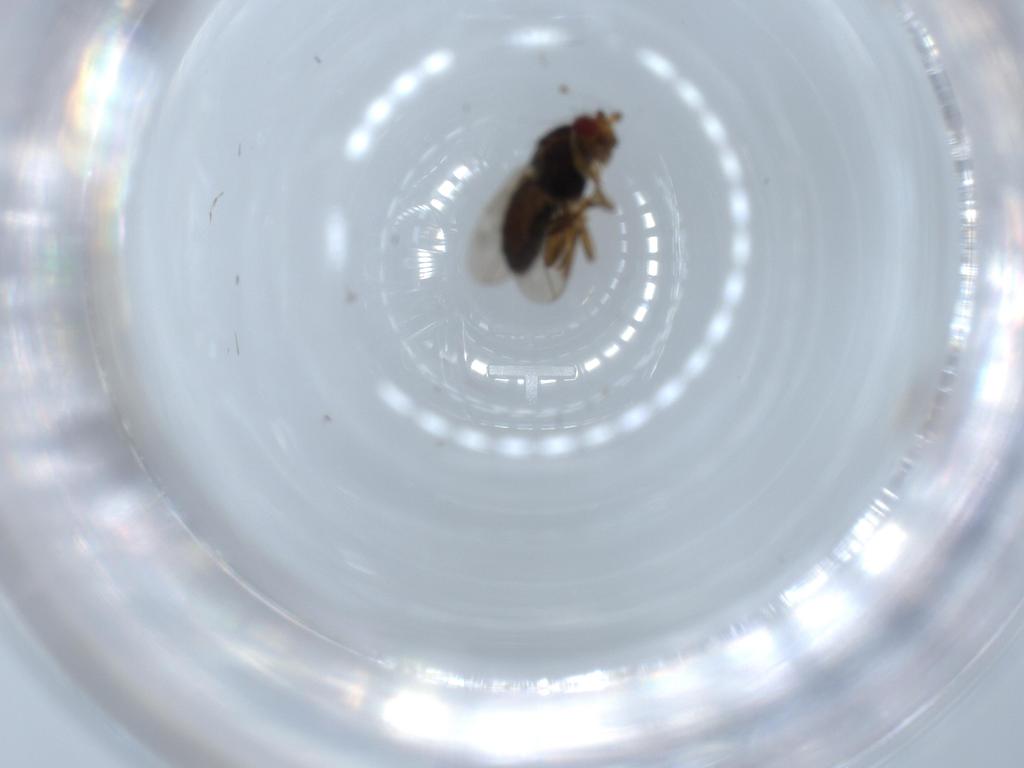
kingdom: Animalia
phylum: Arthropoda
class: Insecta
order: Diptera
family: Sphaeroceridae
